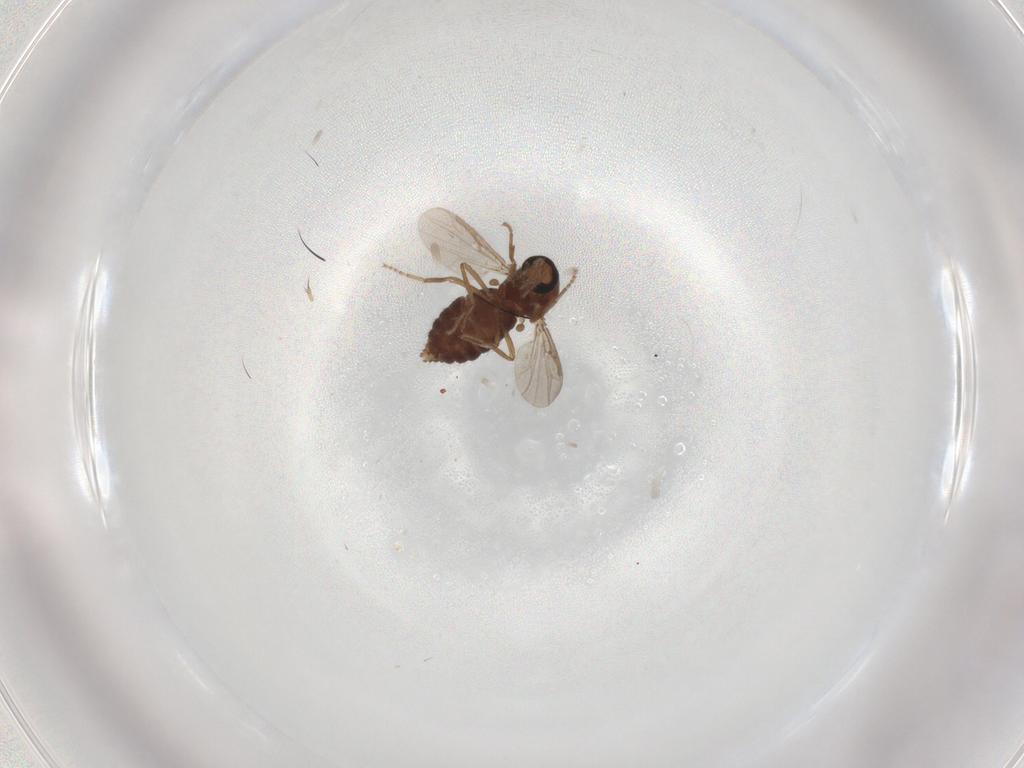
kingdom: Animalia
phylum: Arthropoda
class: Insecta
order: Diptera
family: Ceratopogonidae
